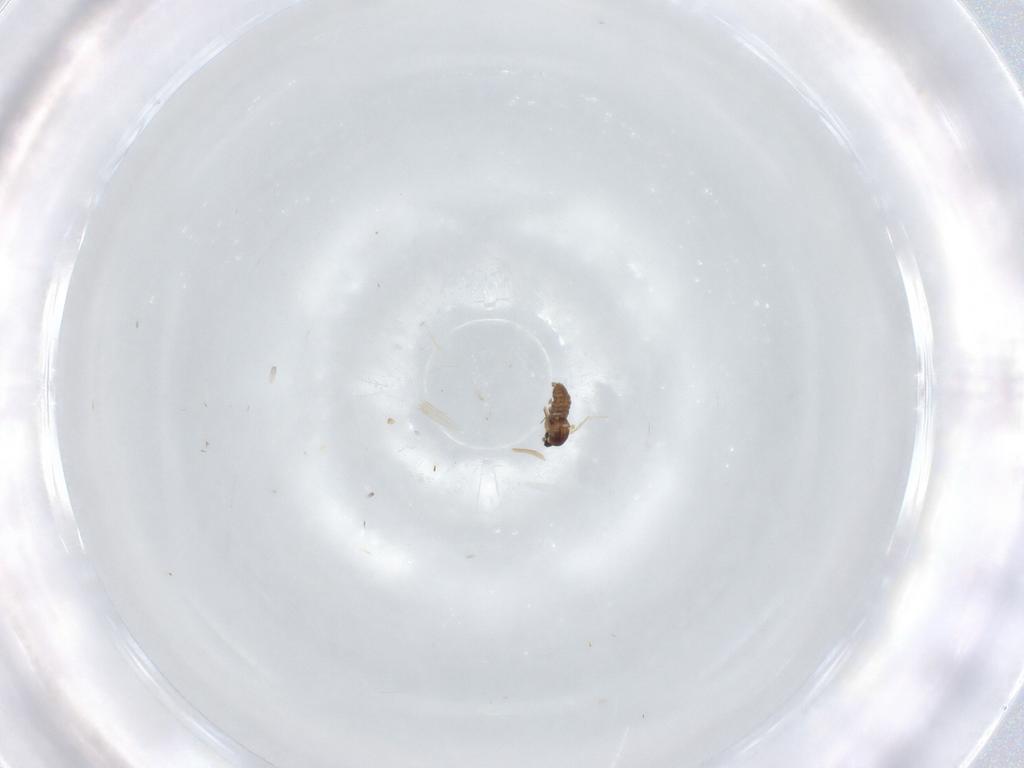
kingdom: Animalia
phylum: Arthropoda
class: Insecta
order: Diptera
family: Cecidomyiidae
